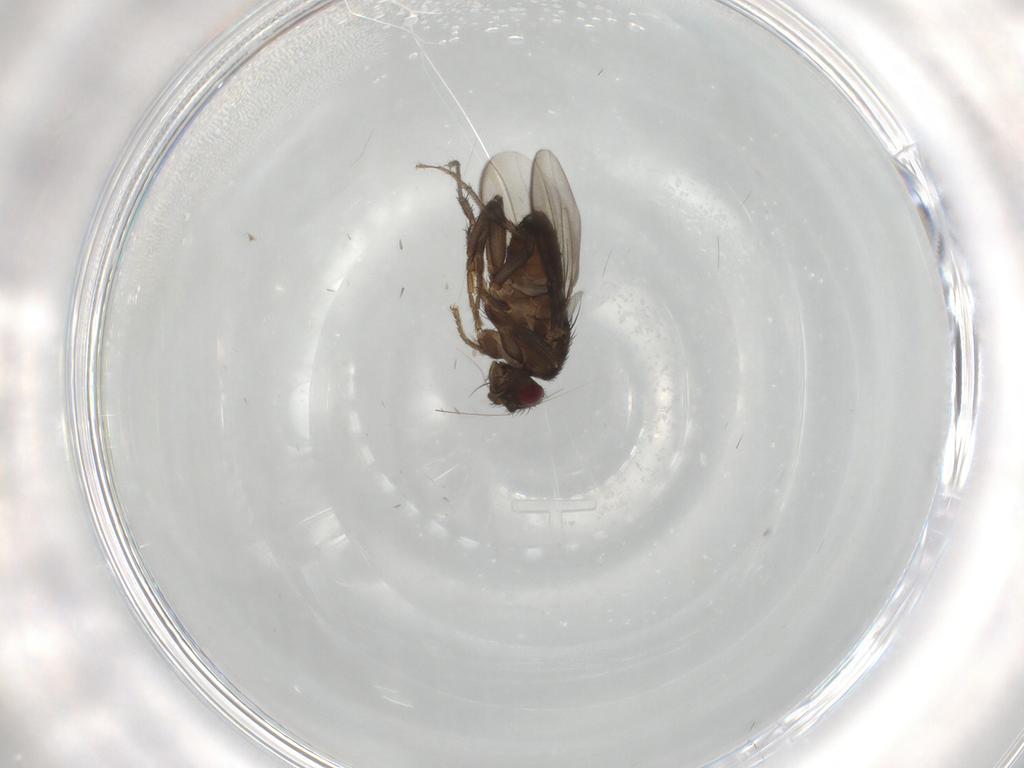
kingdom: Animalia
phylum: Arthropoda
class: Insecta
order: Diptera
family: Sphaeroceridae
